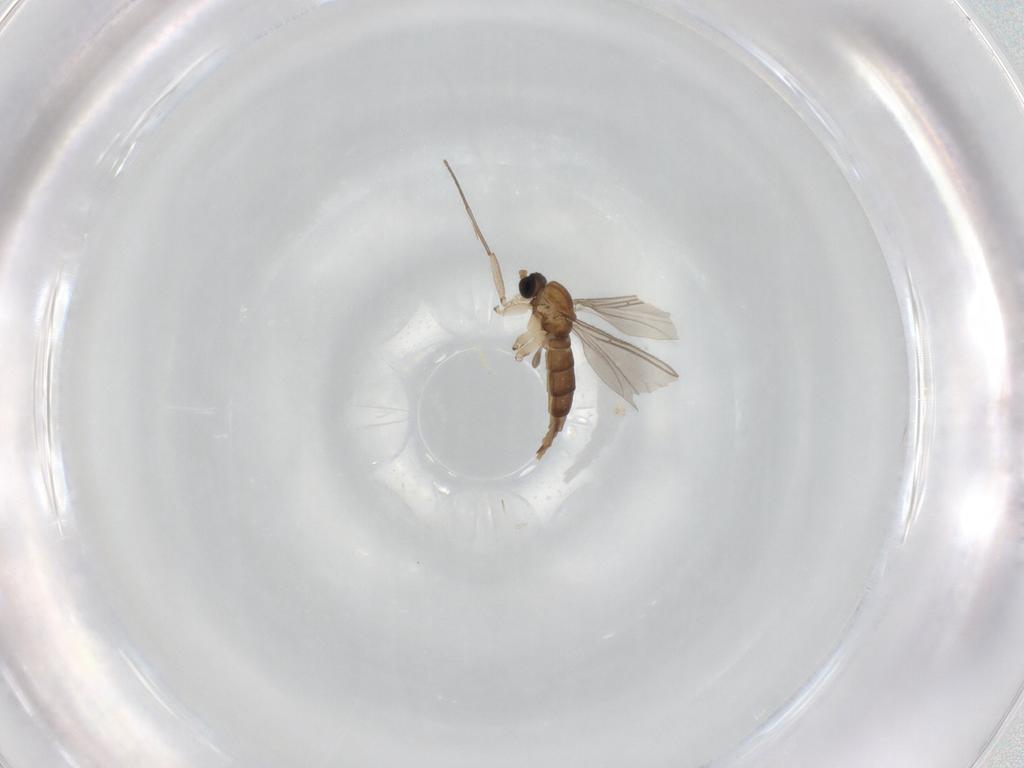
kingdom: Animalia
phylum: Arthropoda
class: Insecta
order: Diptera
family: Sciaridae
